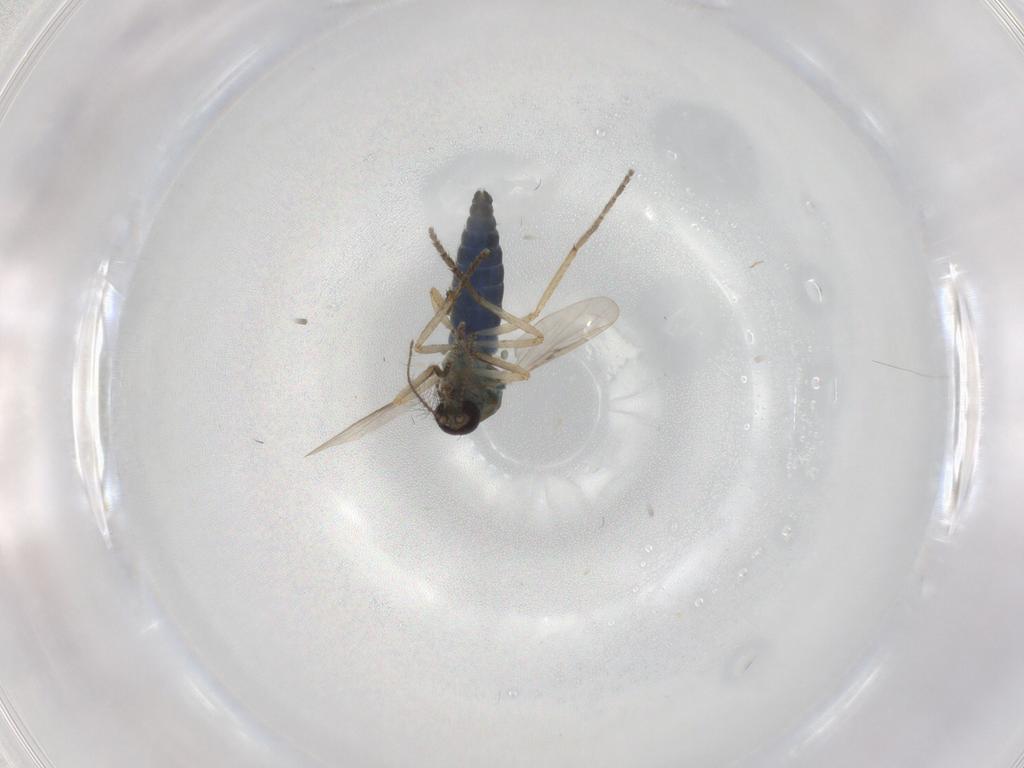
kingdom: Animalia
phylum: Arthropoda
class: Insecta
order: Diptera
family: Ceratopogonidae
